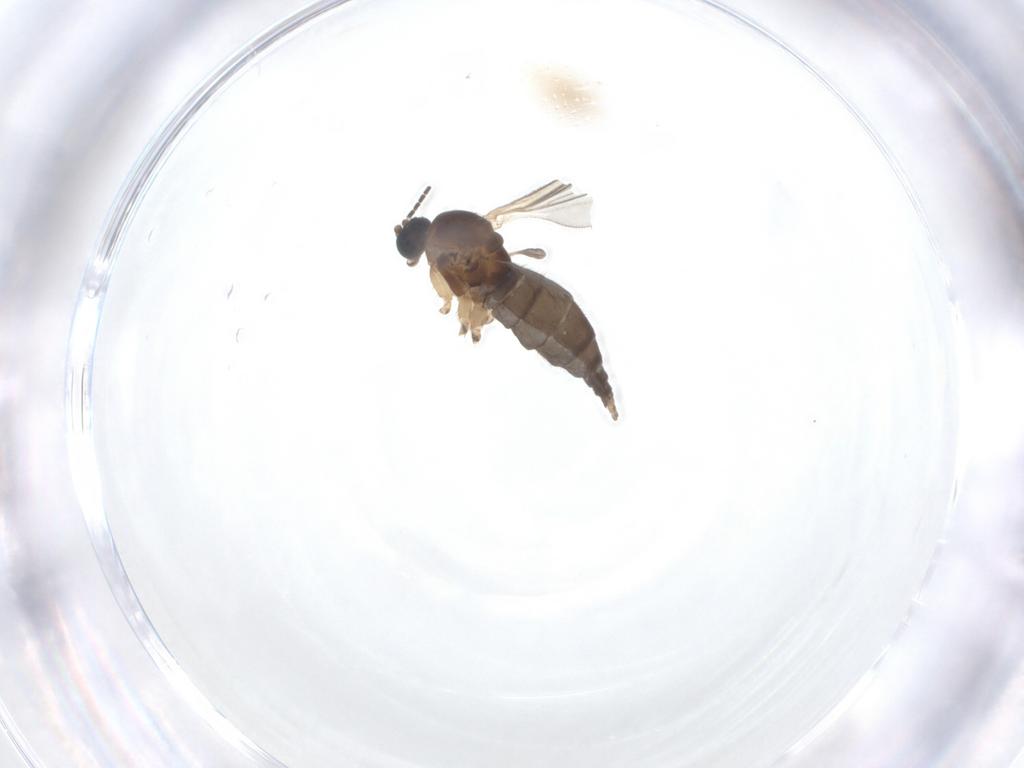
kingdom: Animalia
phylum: Arthropoda
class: Insecta
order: Diptera
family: Sciaridae
